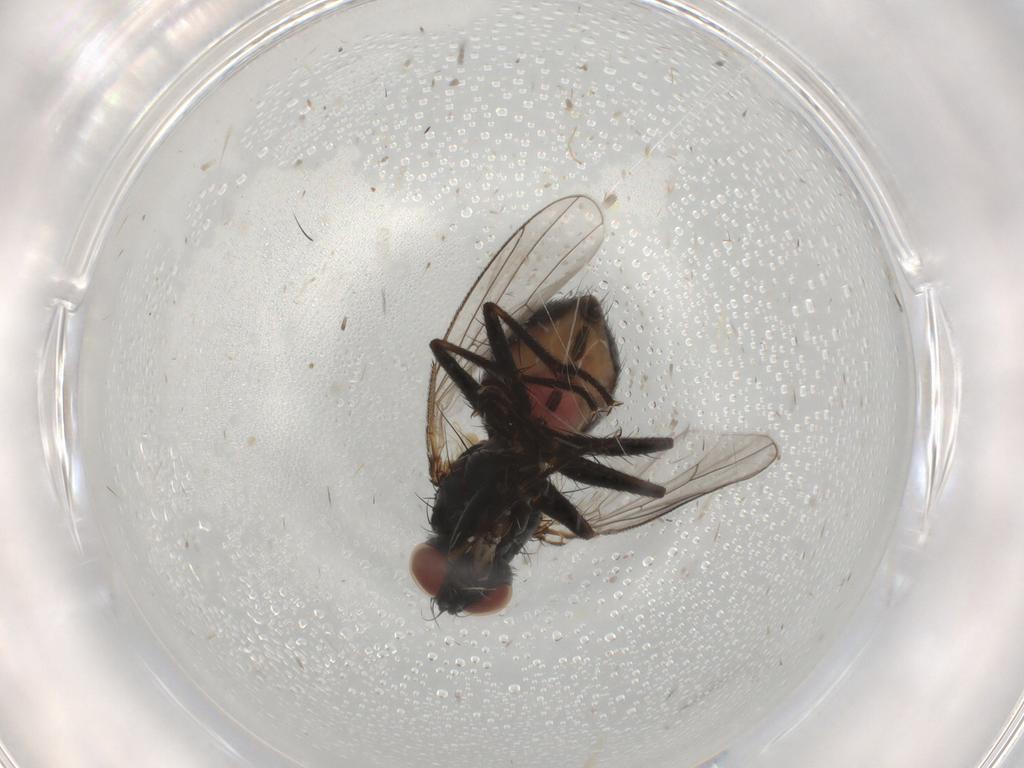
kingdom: Animalia
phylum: Arthropoda
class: Insecta
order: Diptera
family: Muscidae
